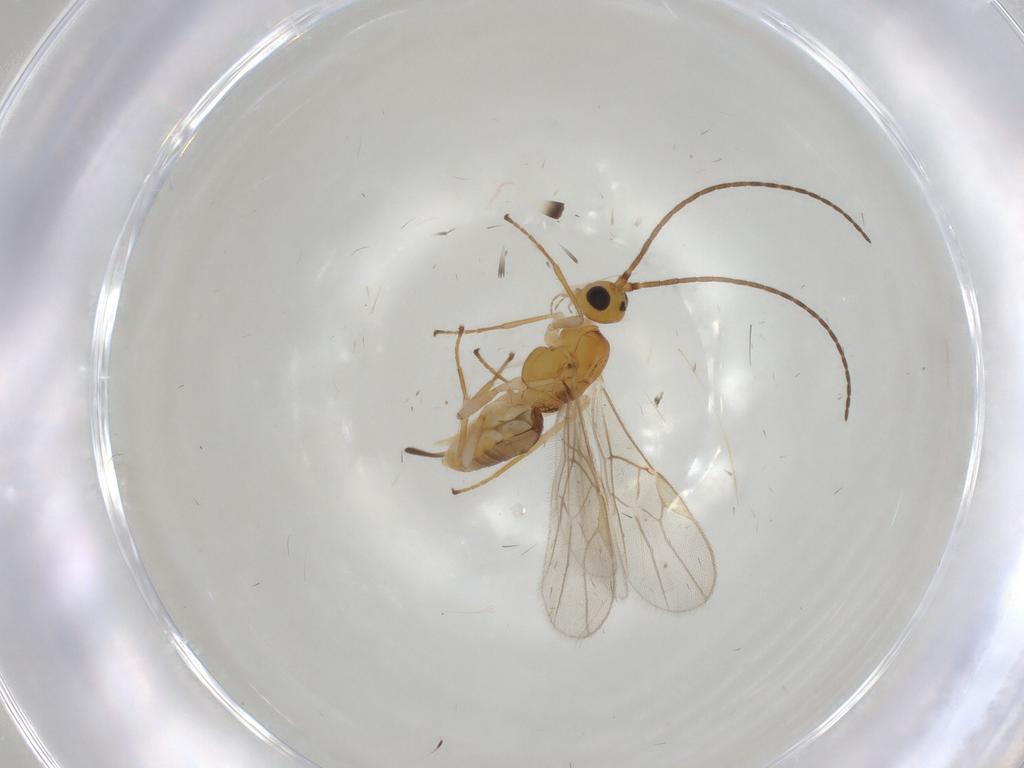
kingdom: Animalia
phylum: Arthropoda
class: Insecta
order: Hymenoptera
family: Braconidae
